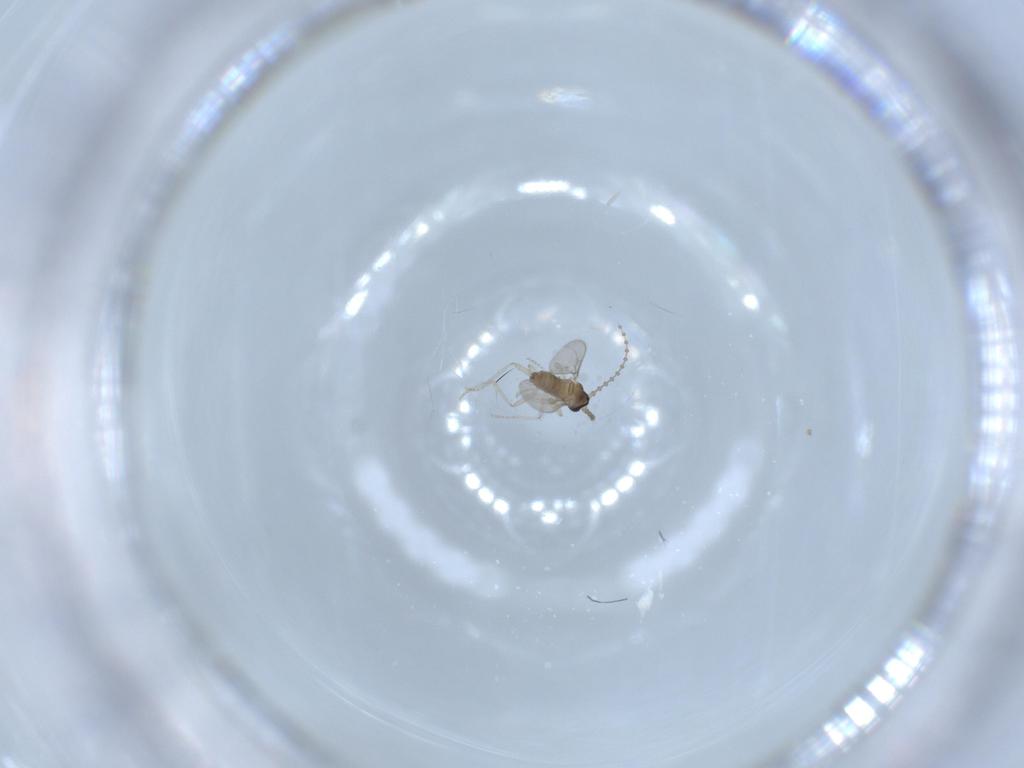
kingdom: Animalia
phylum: Arthropoda
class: Insecta
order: Diptera
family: Cecidomyiidae
